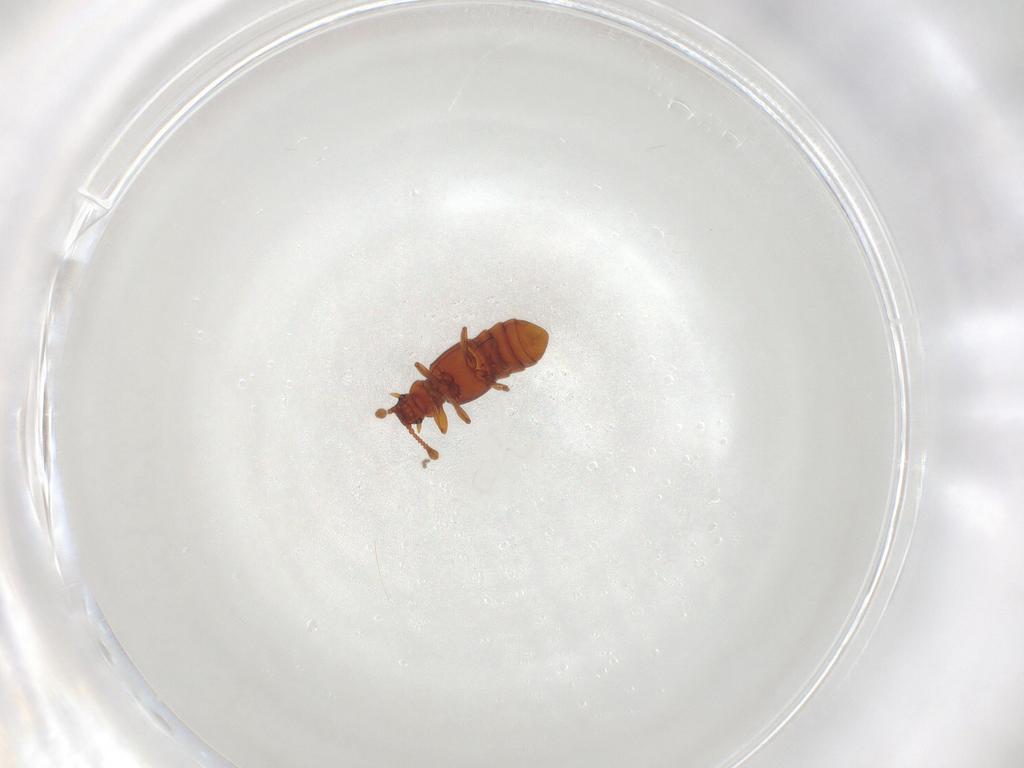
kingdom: Animalia
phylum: Arthropoda
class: Insecta
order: Coleoptera
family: Staphylinidae
